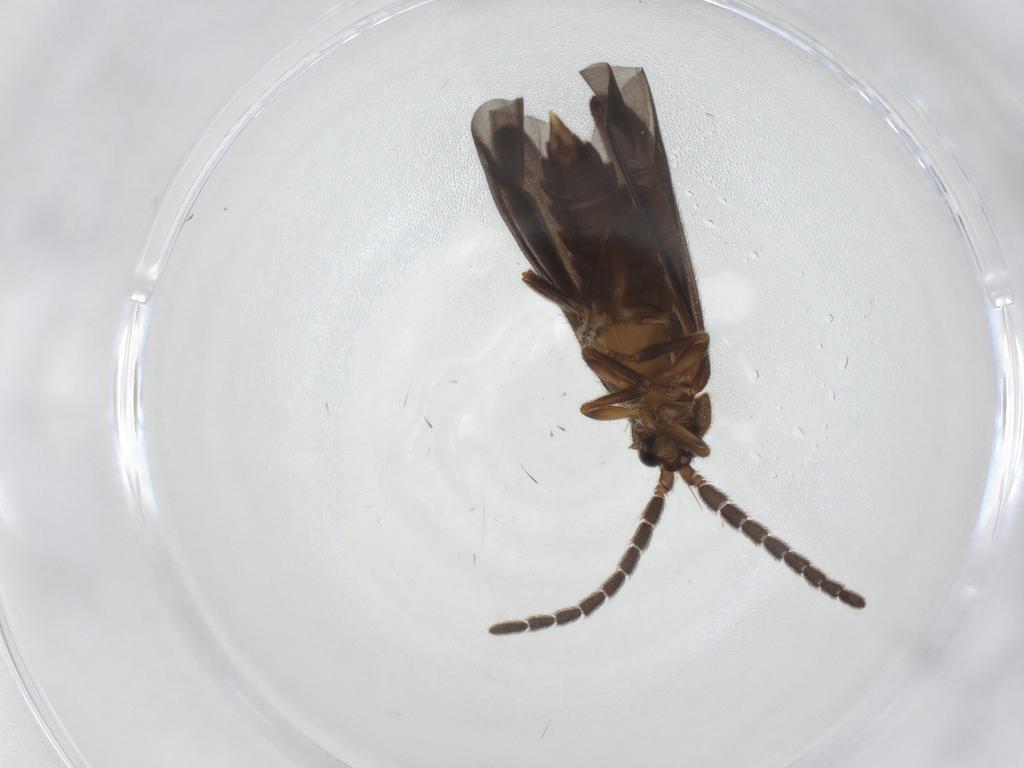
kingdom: Animalia
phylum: Arthropoda
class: Insecta
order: Coleoptera
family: Lycidae
